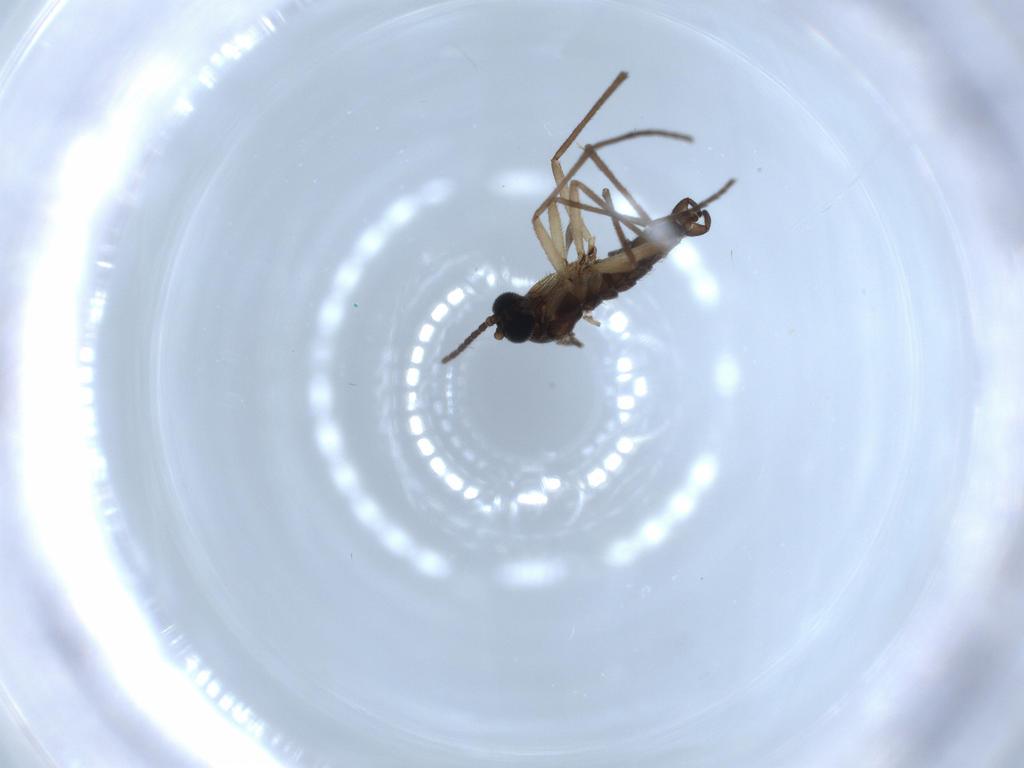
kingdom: Animalia
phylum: Arthropoda
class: Insecta
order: Diptera
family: Sciaridae
